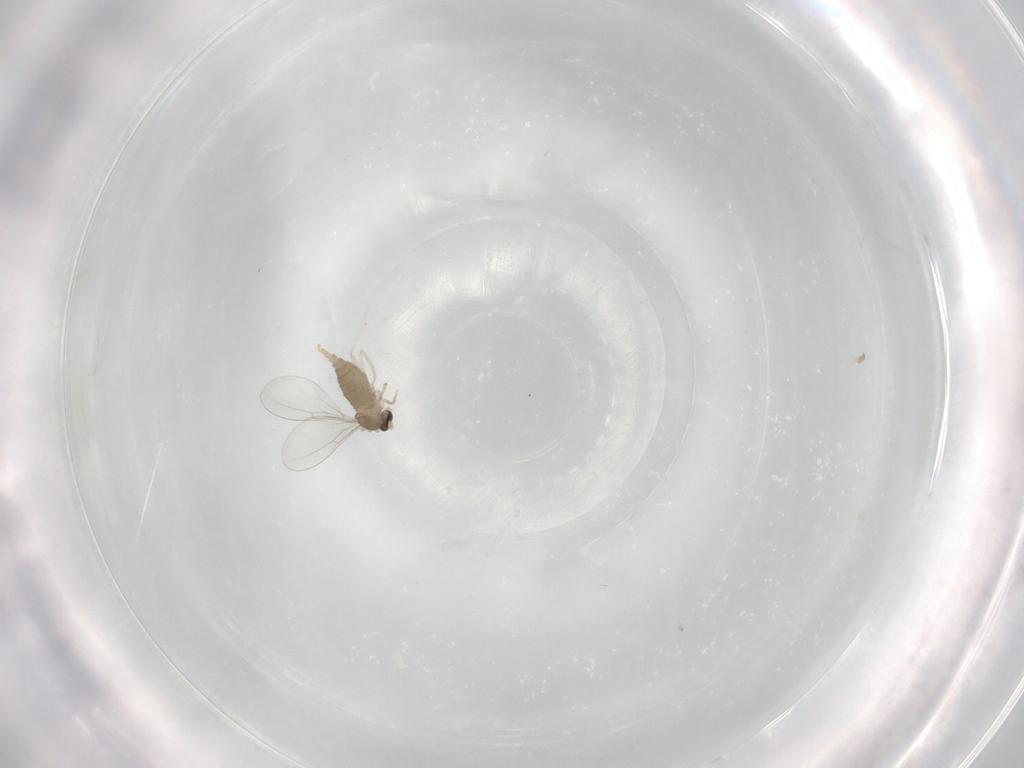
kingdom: Animalia
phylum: Arthropoda
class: Insecta
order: Diptera
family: Cecidomyiidae
